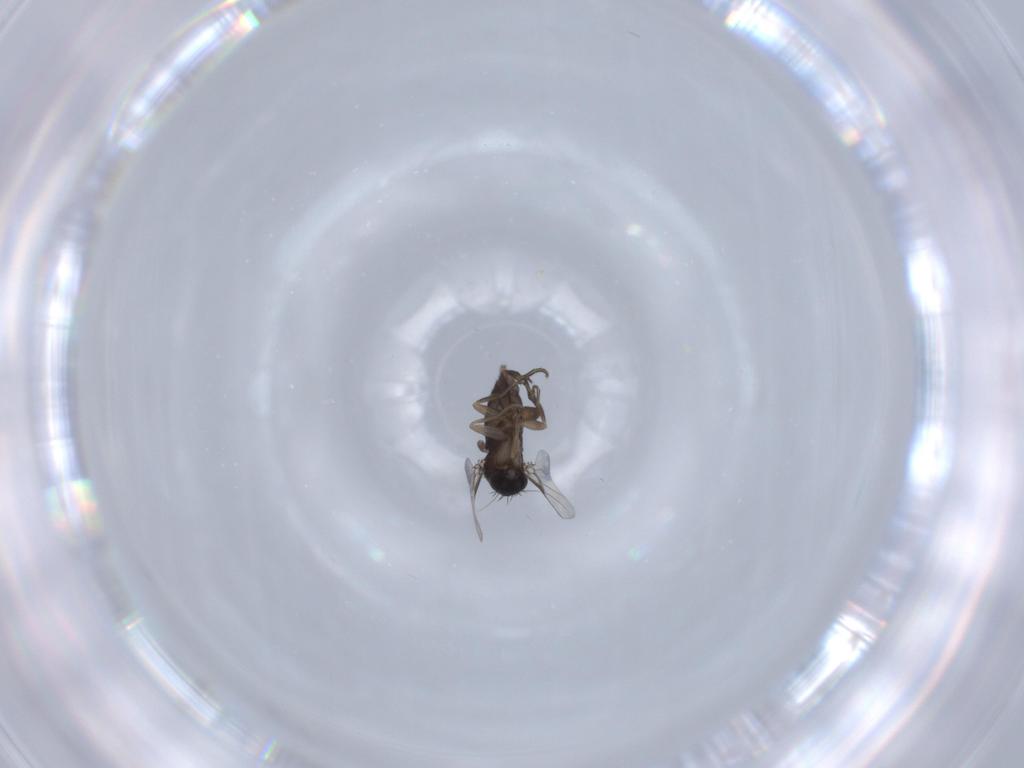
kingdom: Animalia
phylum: Arthropoda
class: Insecta
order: Diptera
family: Phoridae
